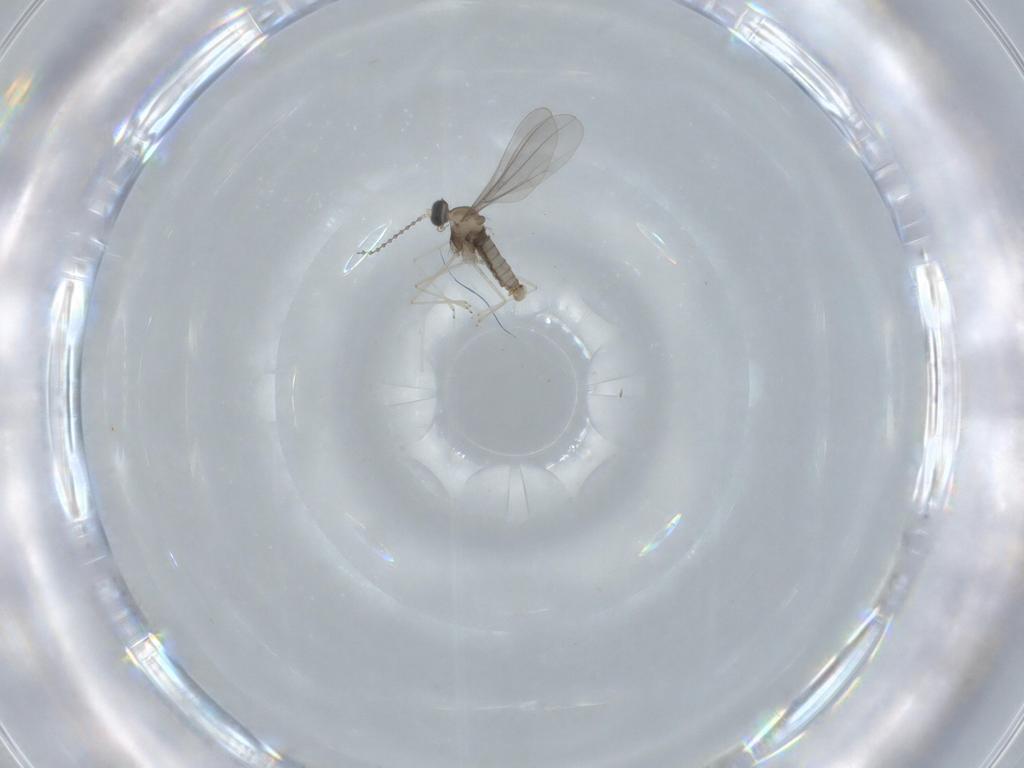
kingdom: Animalia
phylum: Arthropoda
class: Insecta
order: Diptera
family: Cecidomyiidae
